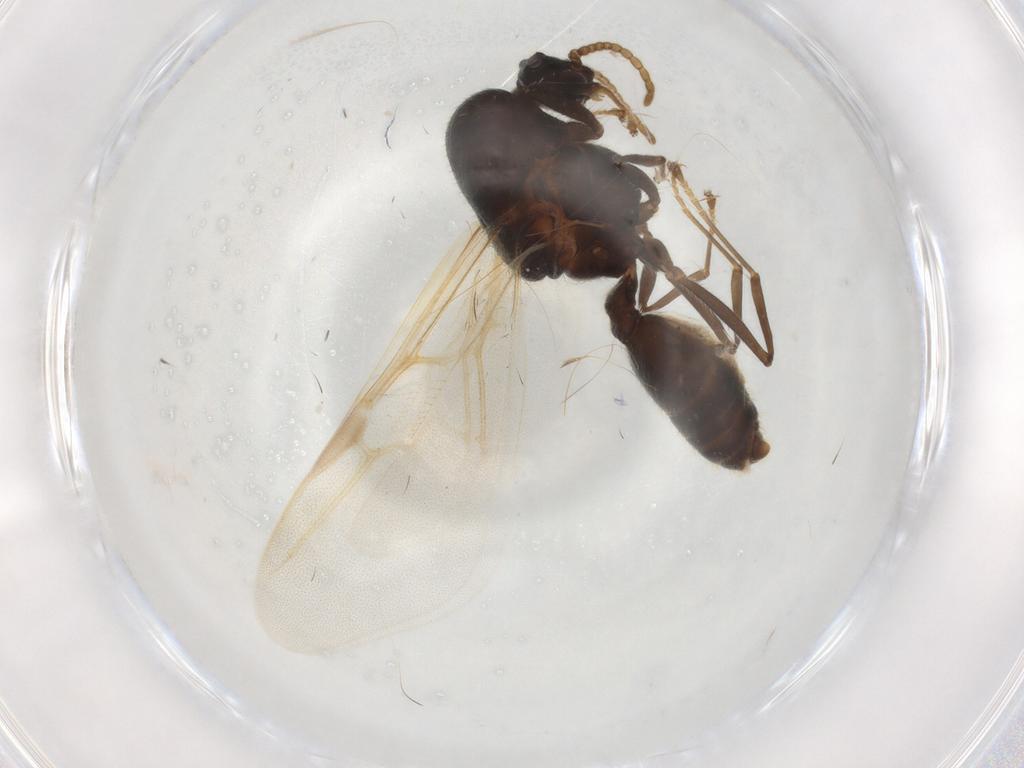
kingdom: Animalia
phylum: Arthropoda
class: Insecta
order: Hymenoptera
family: Formicidae
